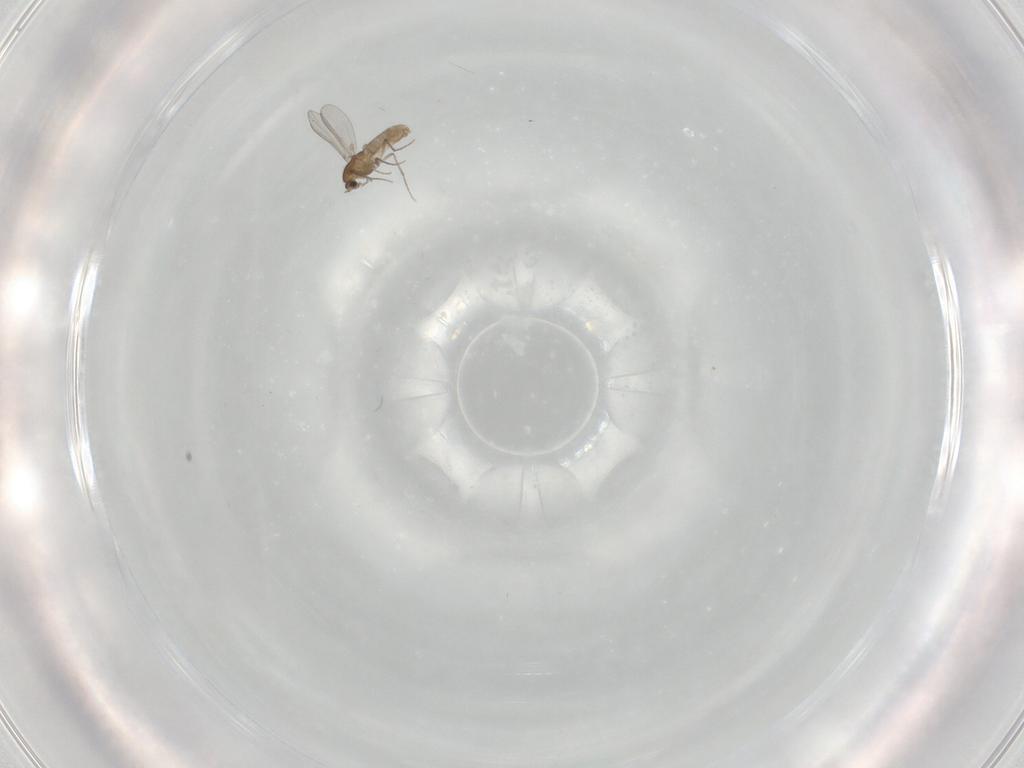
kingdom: Animalia
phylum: Arthropoda
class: Insecta
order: Diptera
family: Chironomidae
